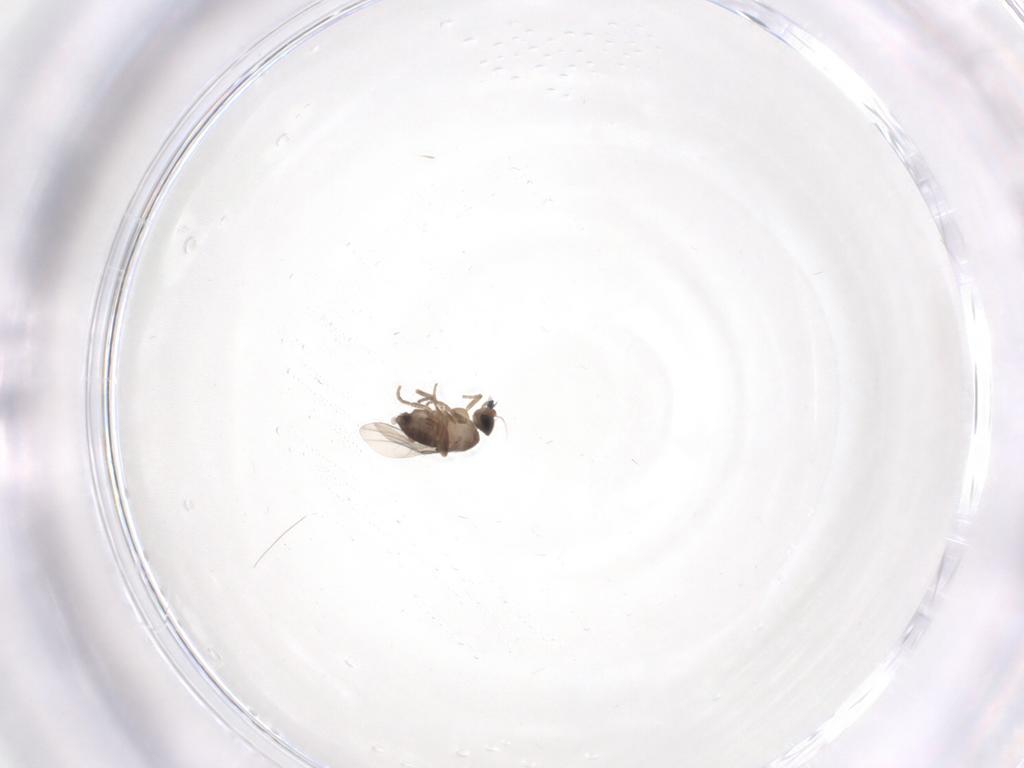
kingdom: Animalia
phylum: Arthropoda
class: Insecta
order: Diptera
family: Phoridae
